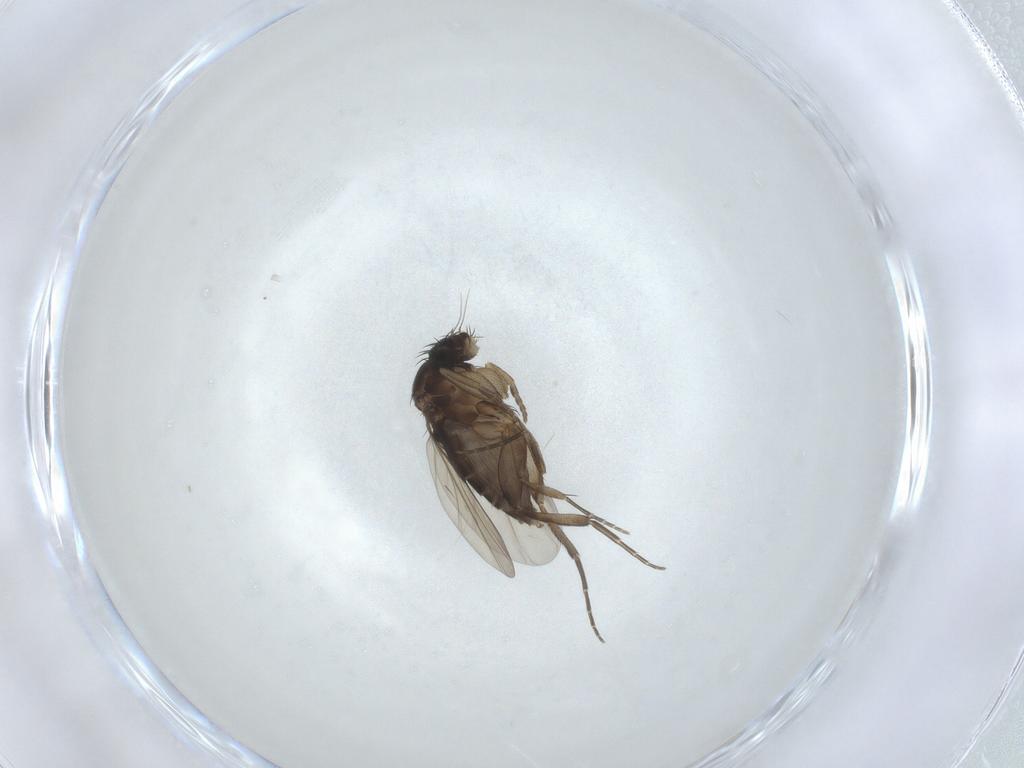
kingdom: Animalia
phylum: Arthropoda
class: Insecta
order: Diptera
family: Phoridae
